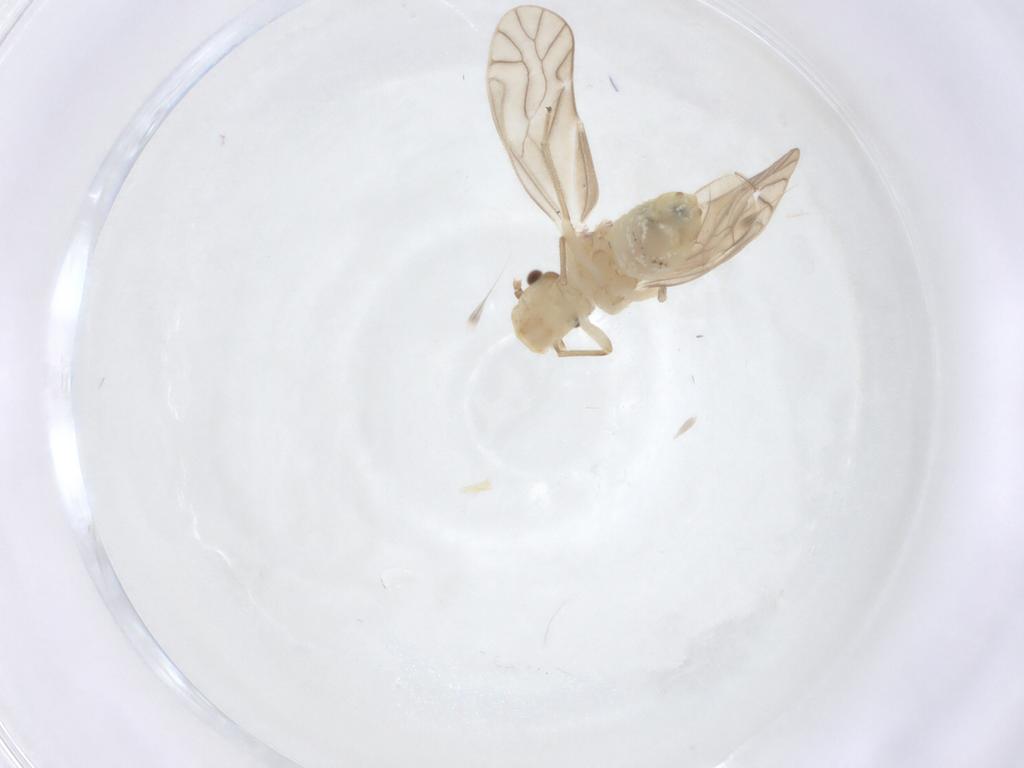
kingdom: Animalia
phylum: Arthropoda
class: Insecta
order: Psocodea
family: Caeciliusidae
